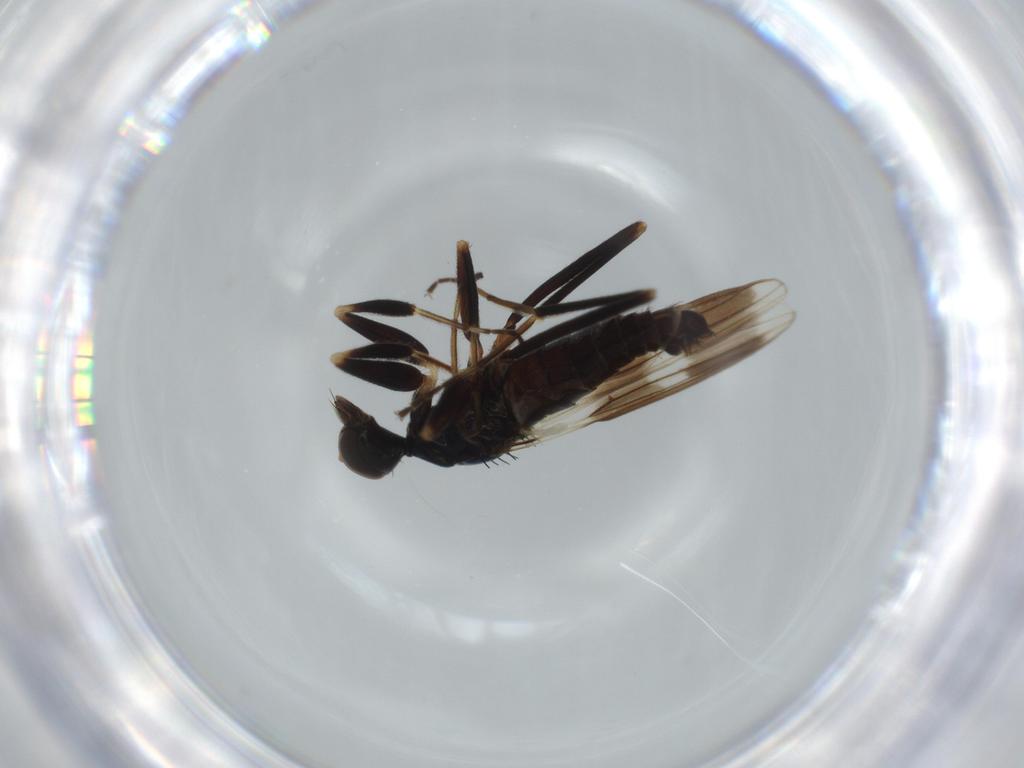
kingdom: Animalia
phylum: Arthropoda
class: Insecta
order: Diptera
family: Hybotidae
